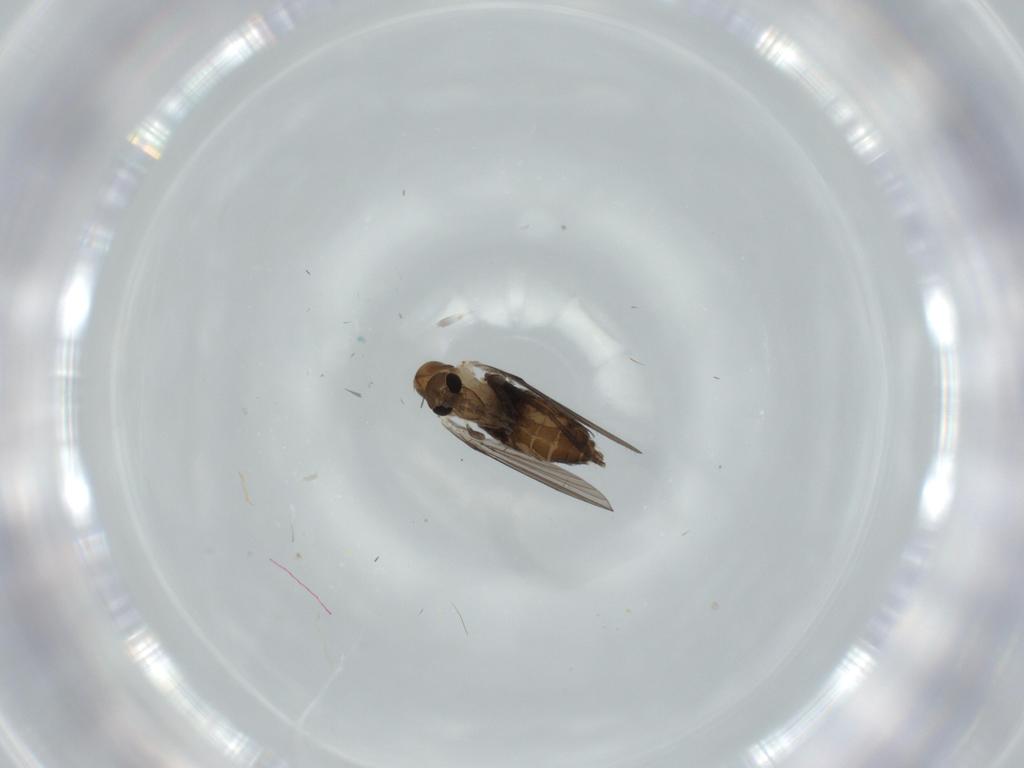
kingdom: Animalia
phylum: Arthropoda
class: Insecta
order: Diptera
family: Psychodidae
